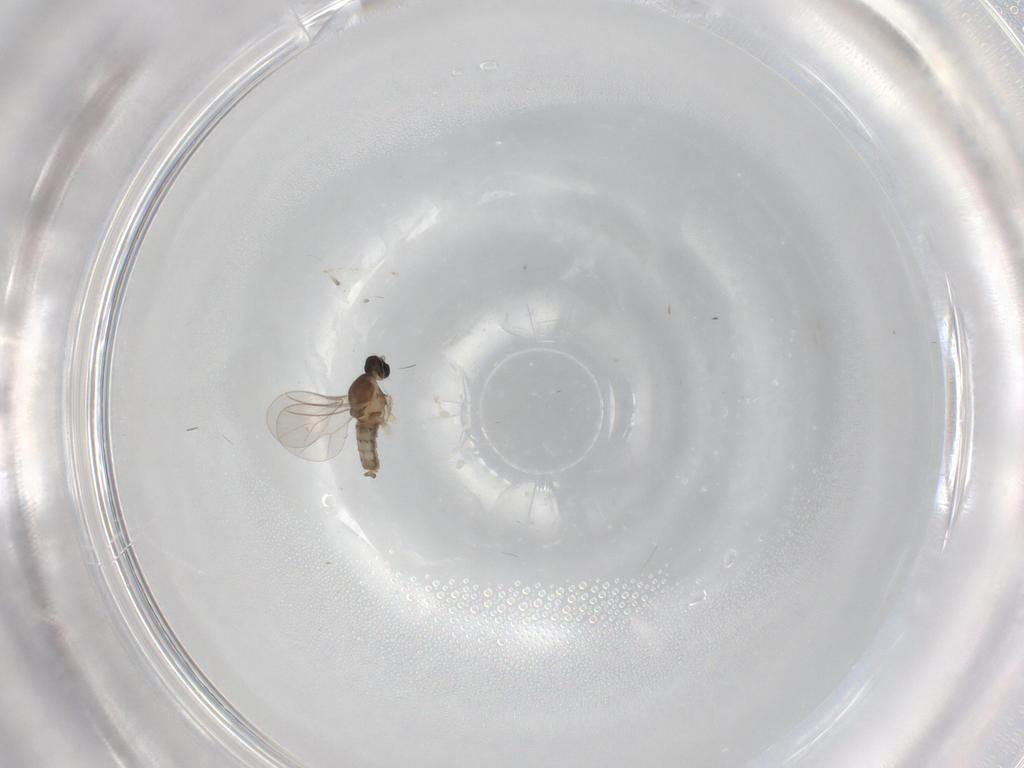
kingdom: Animalia
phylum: Arthropoda
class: Insecta
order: Diptera
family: Cecidomyiidae
